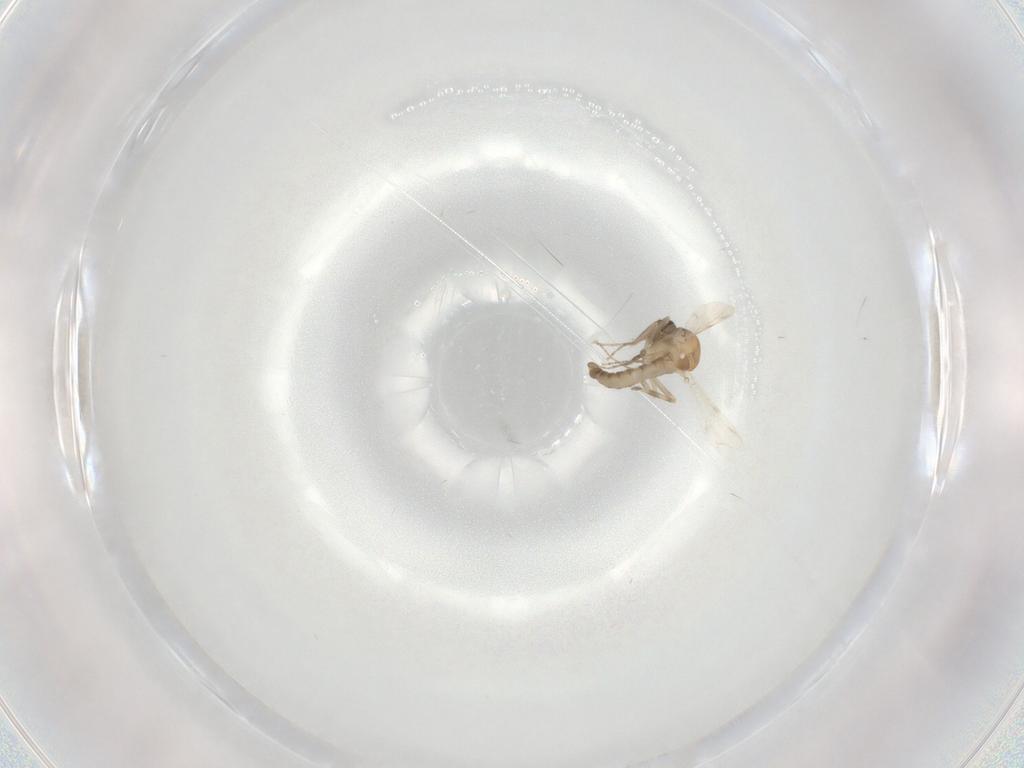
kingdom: Animalia
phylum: Arthropoda
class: Insecta
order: Diptera
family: Ceratopogonidae
